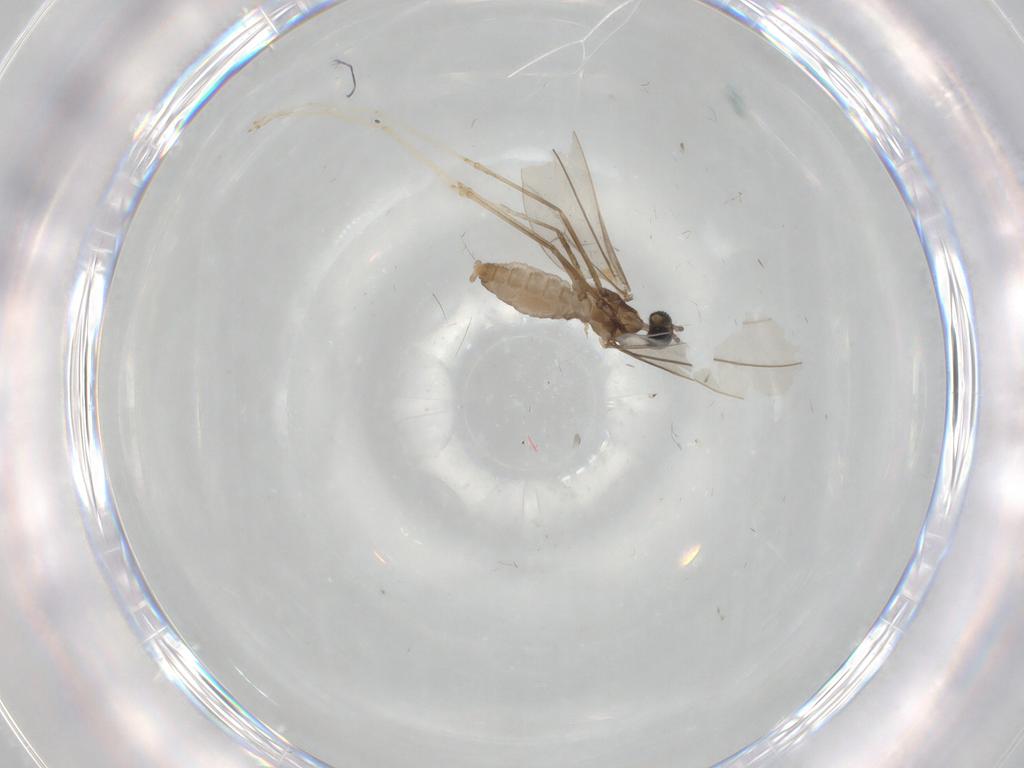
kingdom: Animalia
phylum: Arthropoda
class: Insecta
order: Diptera
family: Cecidomyiidae
